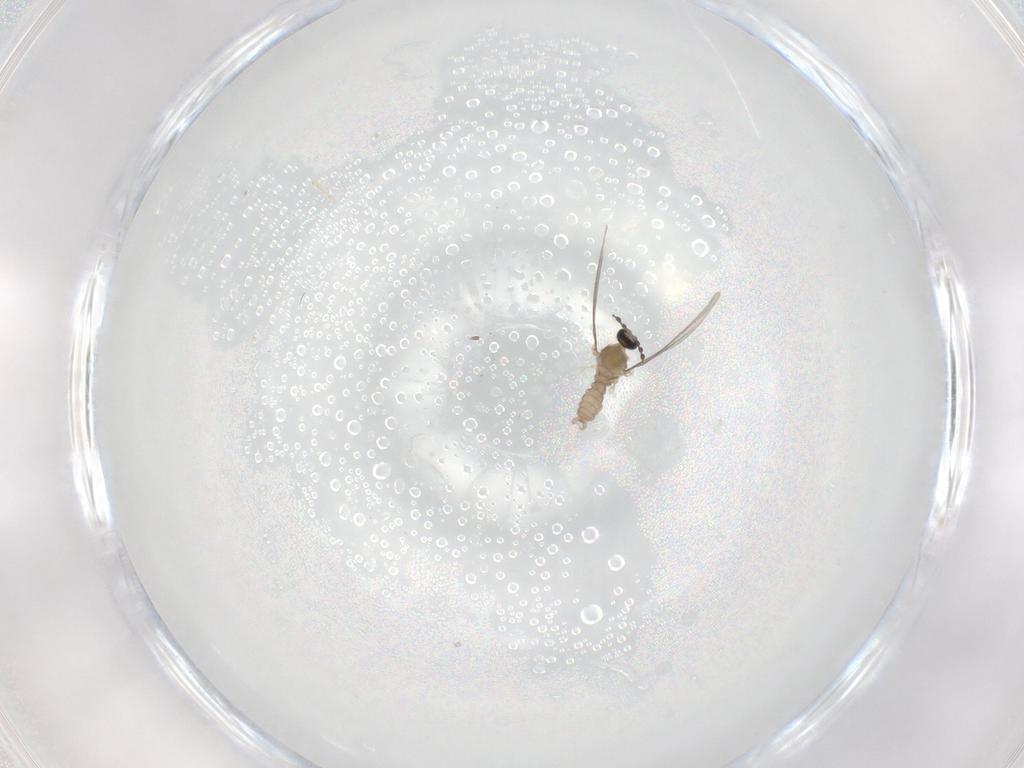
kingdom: Animalia
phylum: Arthropoda
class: Insecta
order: Diptera
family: Cecidomyiidae
